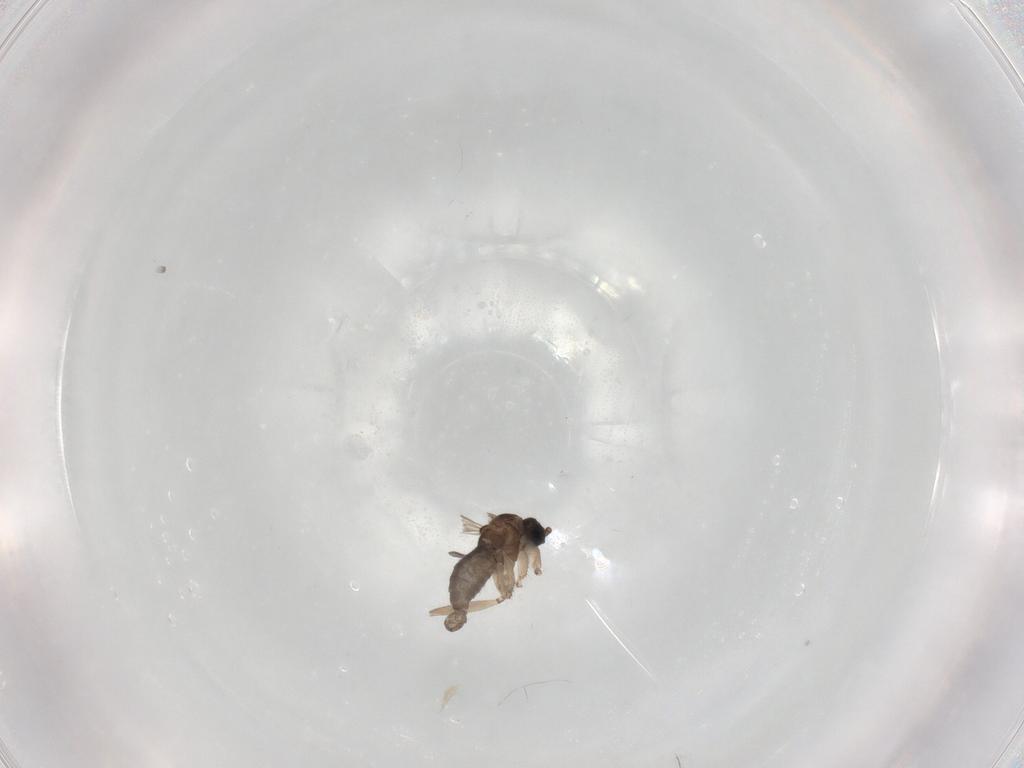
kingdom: Animalia
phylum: Arthropoda
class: Insecta
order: Diptera
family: Sciaridae
